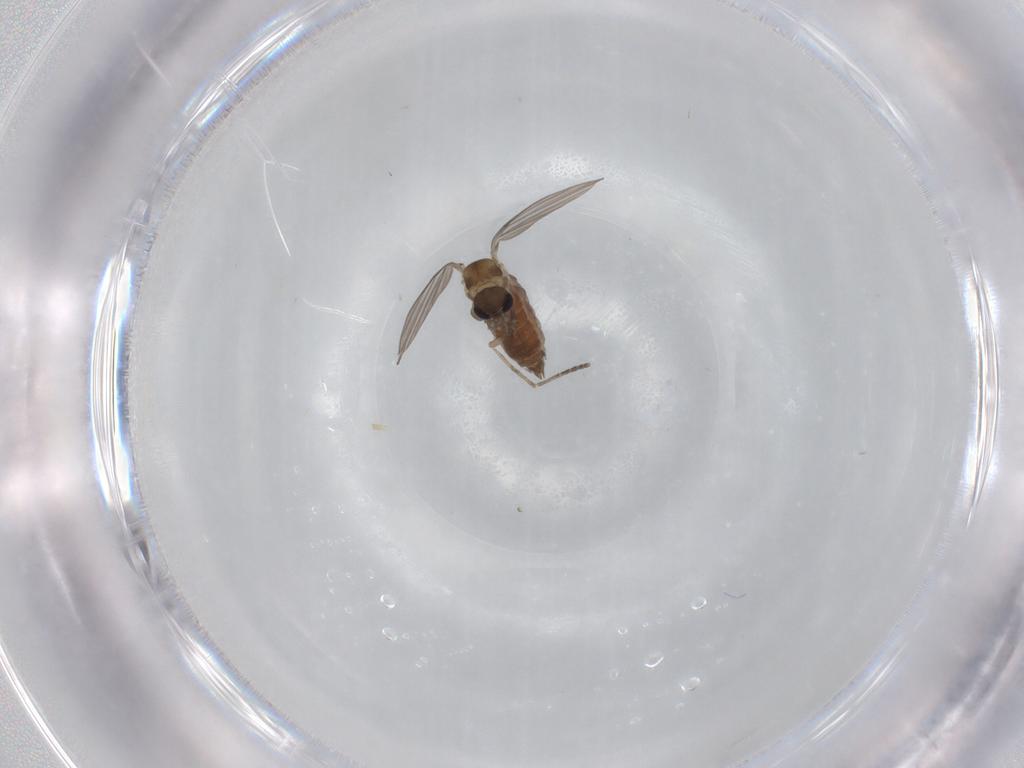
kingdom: Animalia
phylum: Arthropoda
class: Insecta
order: Diptera
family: Psychodidae
